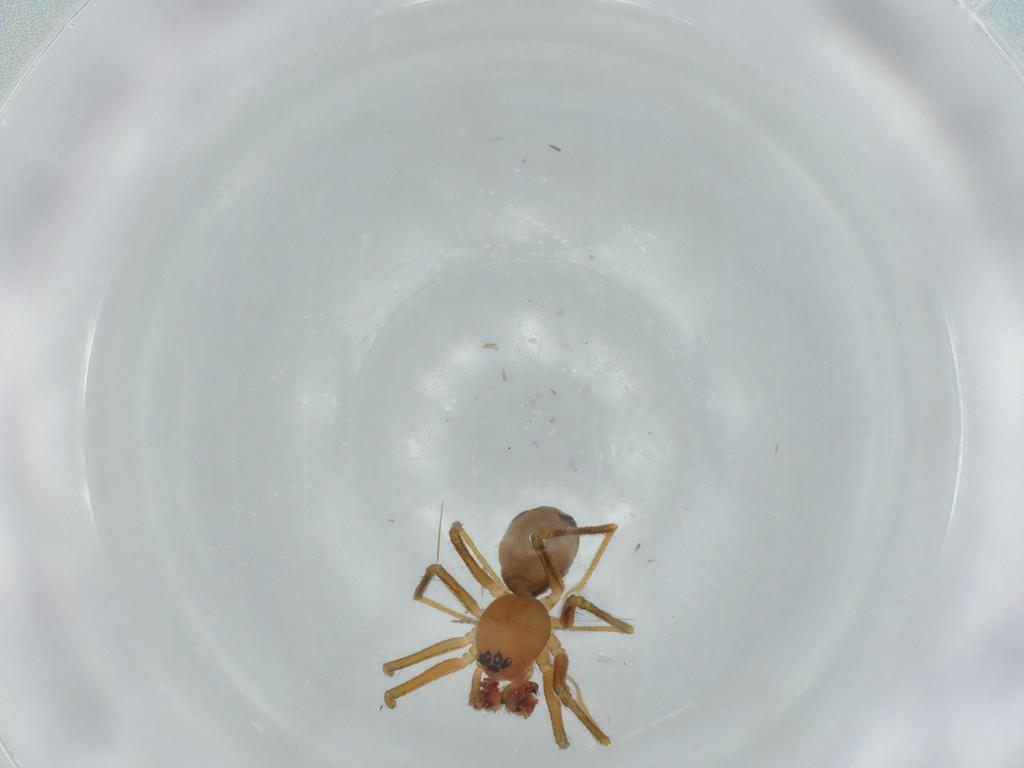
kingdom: Animalia
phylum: Arthropoda
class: Arachnida
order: Araneae
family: Linyphiidae
